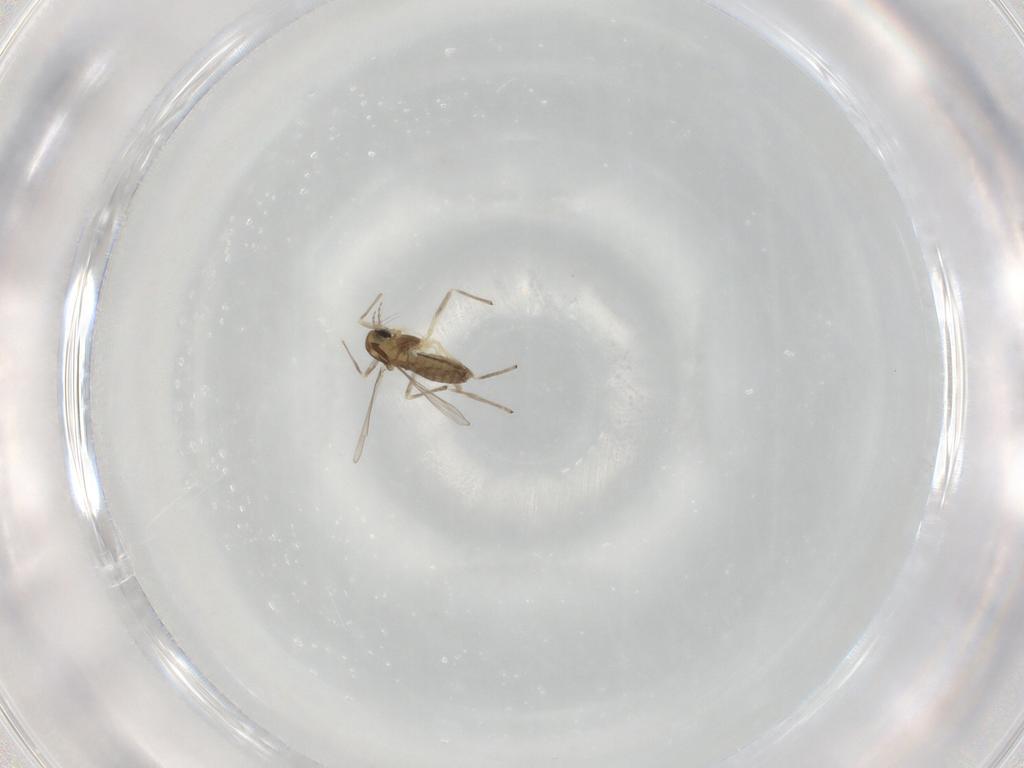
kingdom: Animalia
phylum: Arthropoda
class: Insecta
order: Diptera
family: Chironomidae
